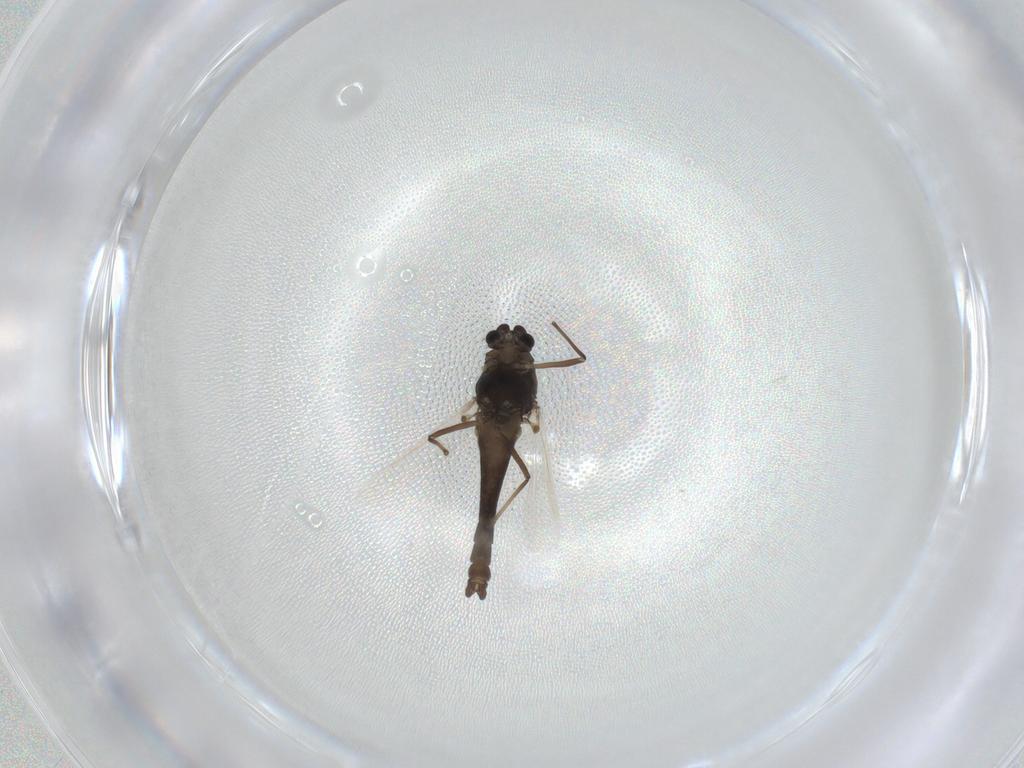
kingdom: Animalia
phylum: Arthropoda
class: Insecta
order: Diptera
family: Chironomidae
